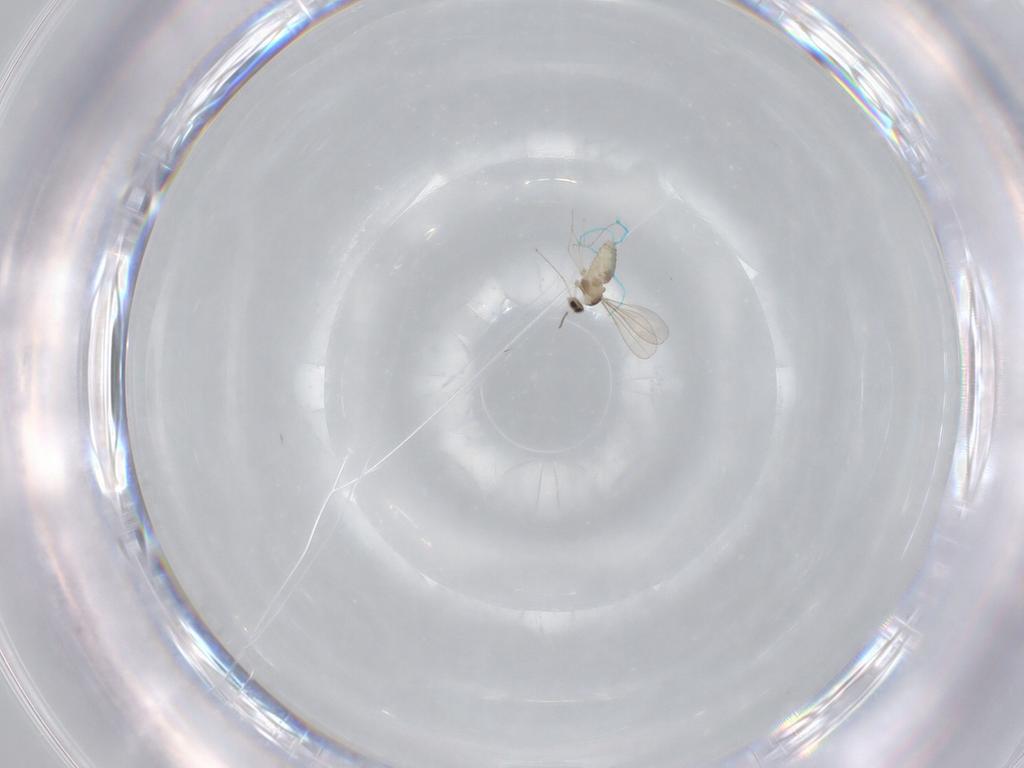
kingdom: Animalia
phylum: Arthropoda
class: Insecta
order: Diptera
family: Cecidomyiidae
